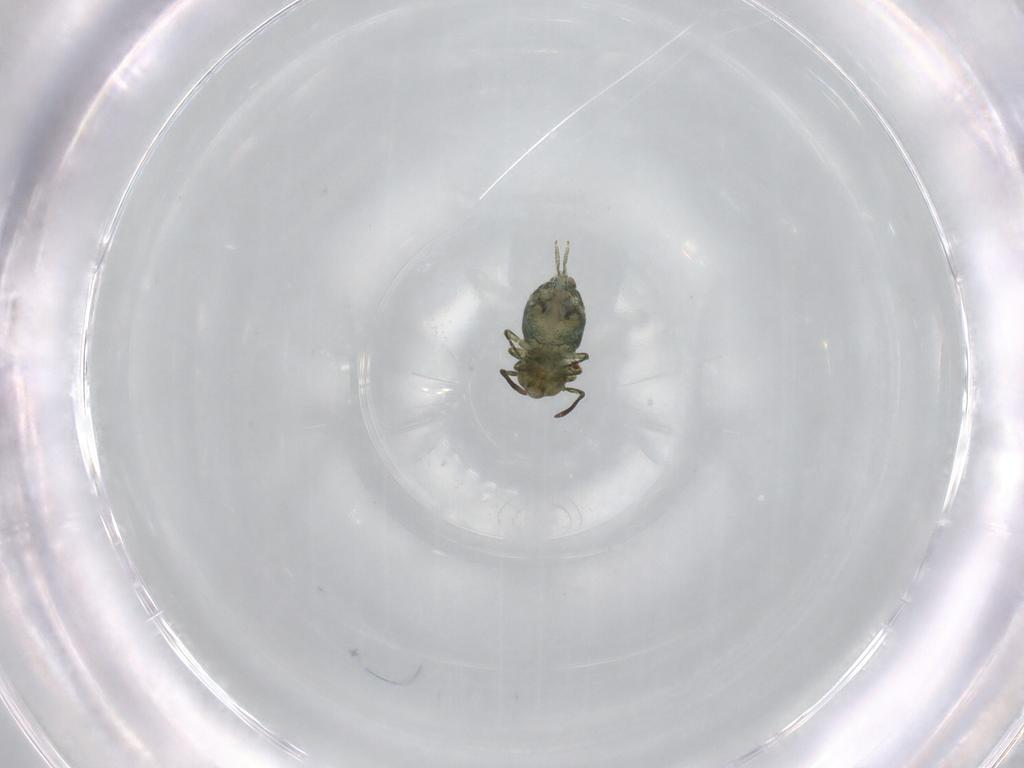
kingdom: Animalia
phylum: Arthropoda
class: Collembola
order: Symphypleona
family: Sminthuridae
